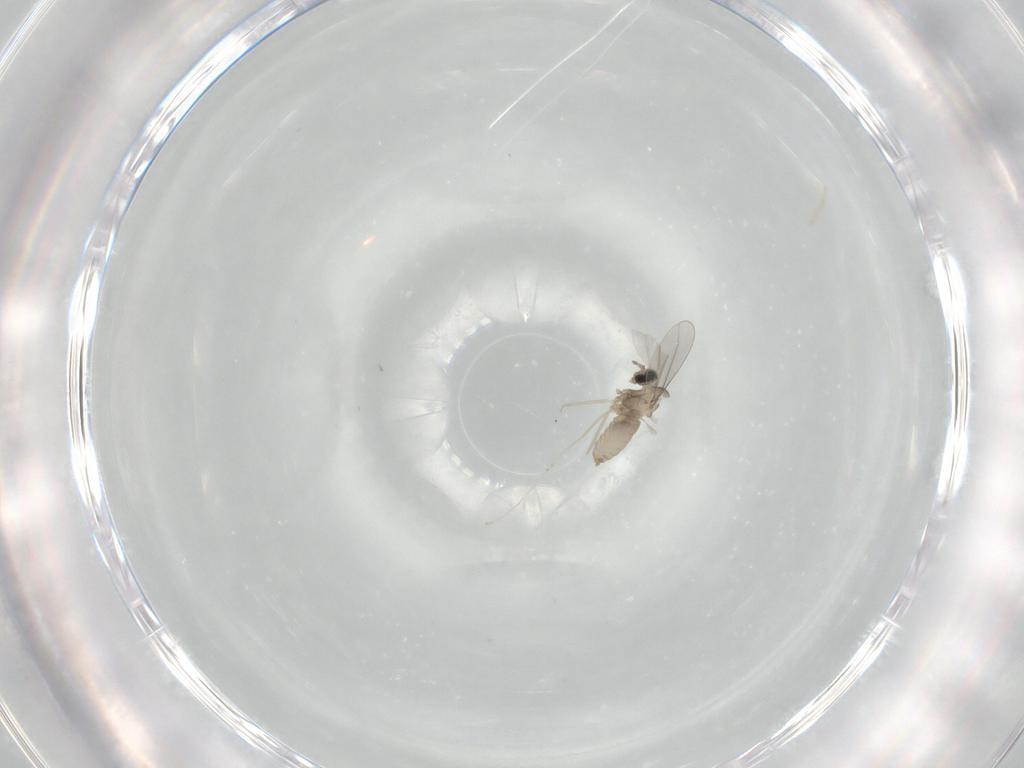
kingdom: Animalia
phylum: Arthropoda
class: Insecta
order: Diptera
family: Cecidomyiidae
